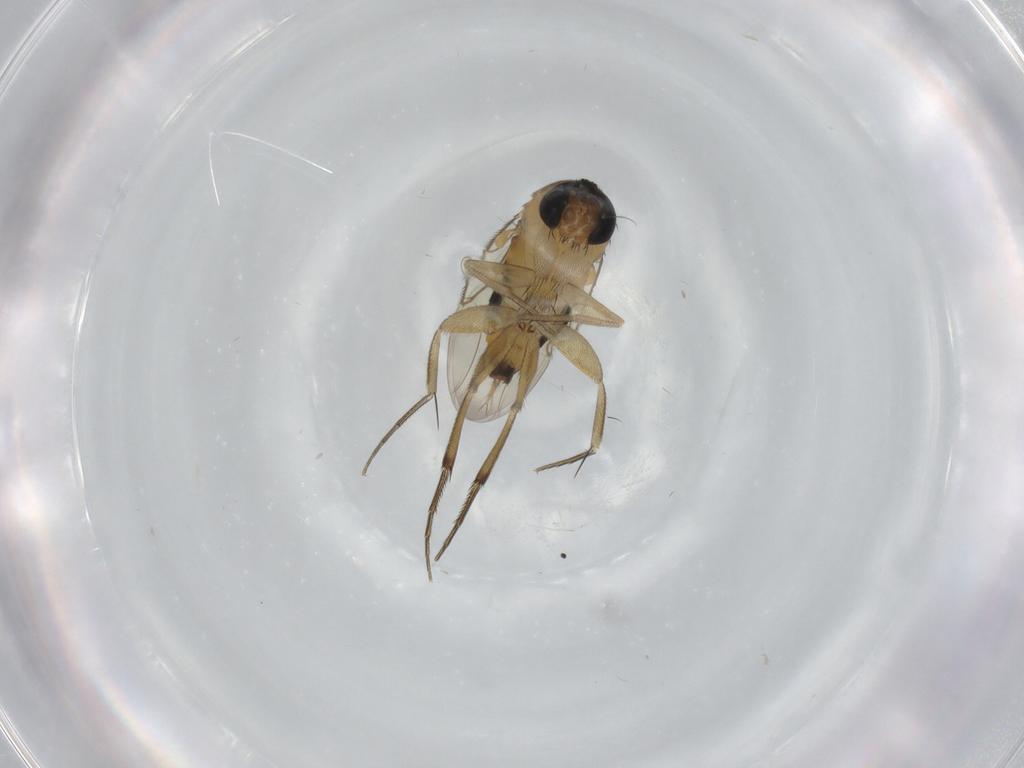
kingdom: Animalia
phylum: Arthropoda
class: Insecta
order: Diptera
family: Phoridae
